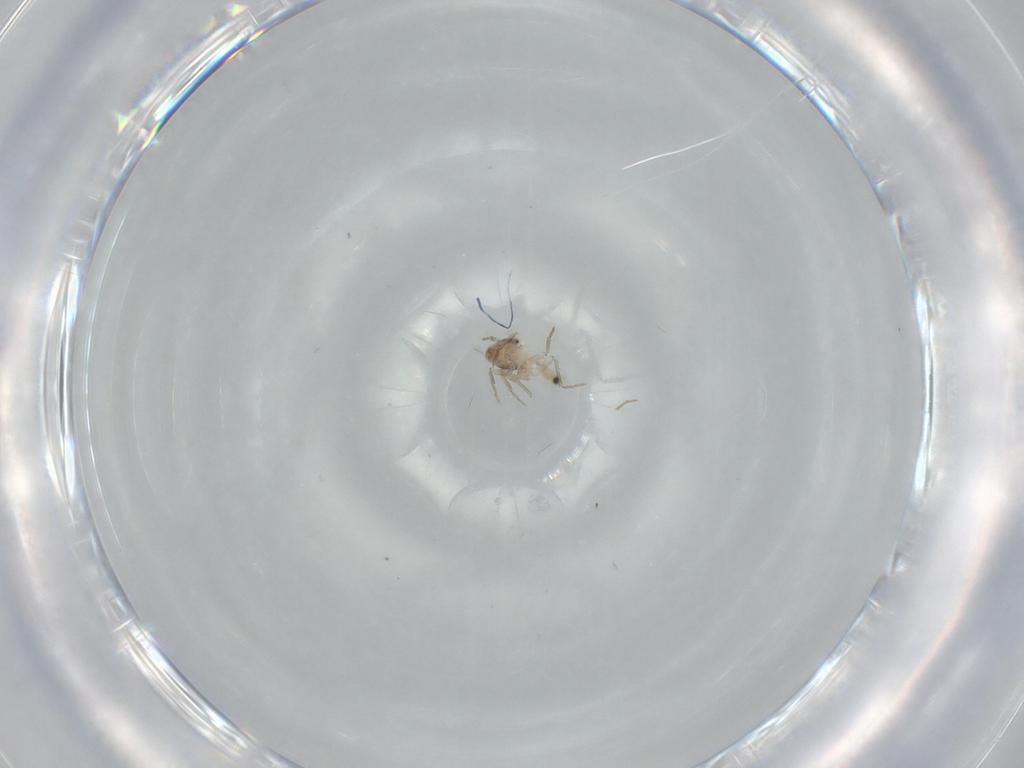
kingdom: Animalia
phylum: Arthropoda
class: Insecta
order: Psocodea
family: Lepidopsocidae
